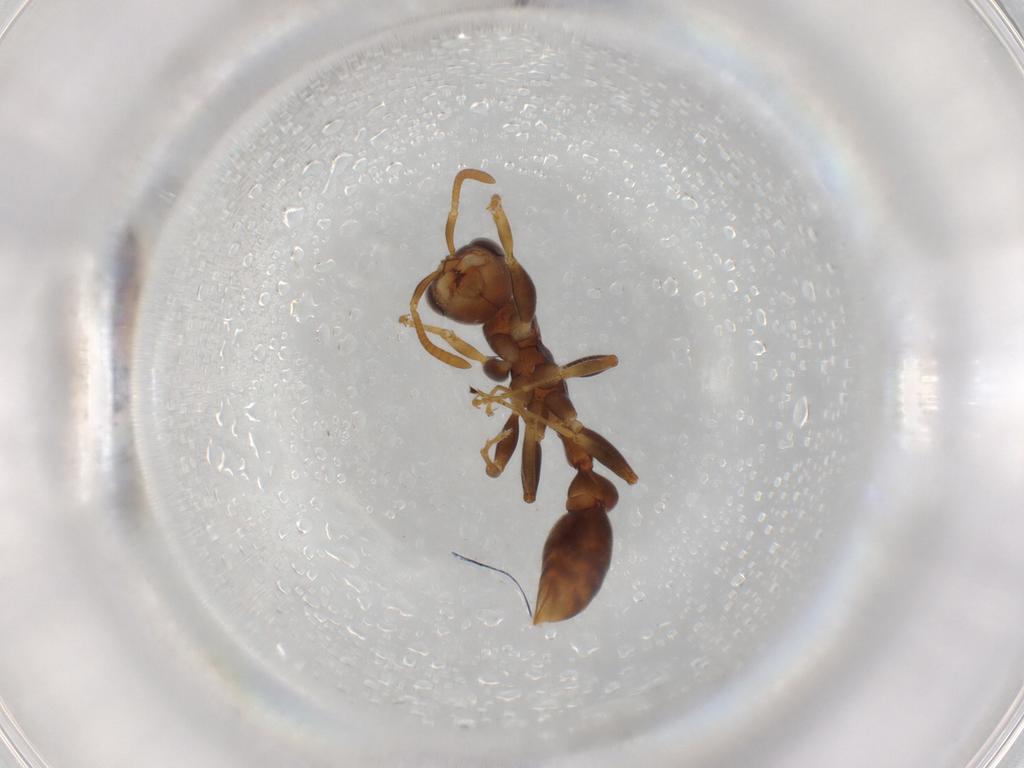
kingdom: Animalia
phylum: Arthropoda
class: Insecta
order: Hymenoptera
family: Formicidae
